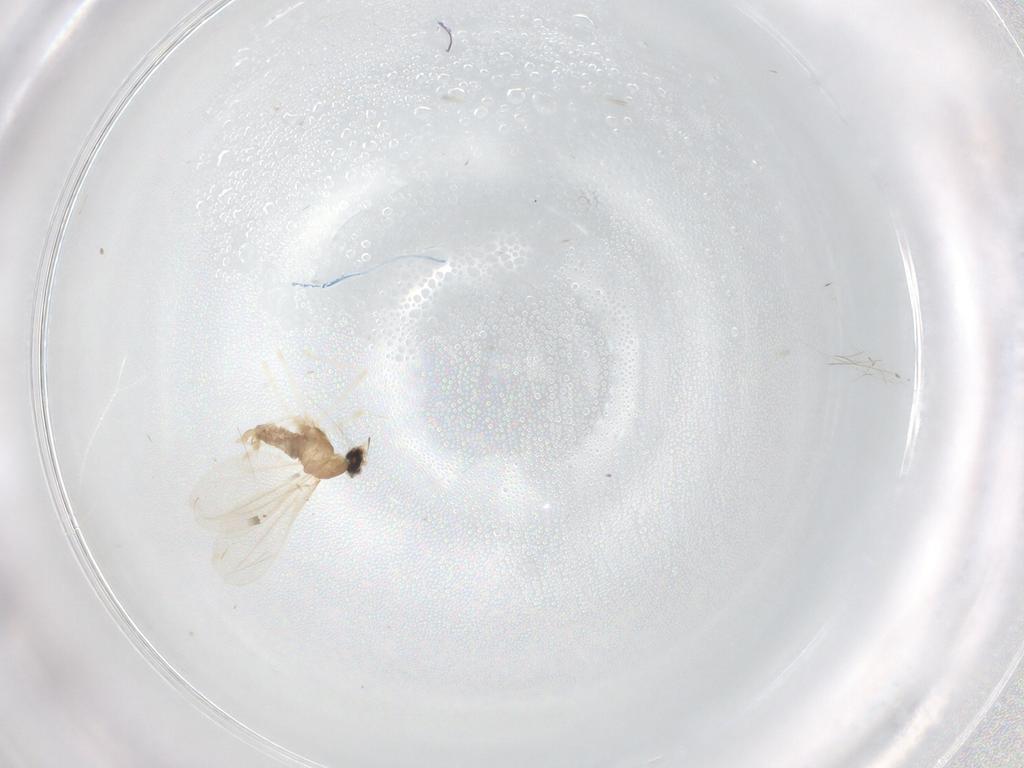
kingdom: Animalia
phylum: Arthropoda
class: Insecta
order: Diptera
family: Cecidomyiidae
